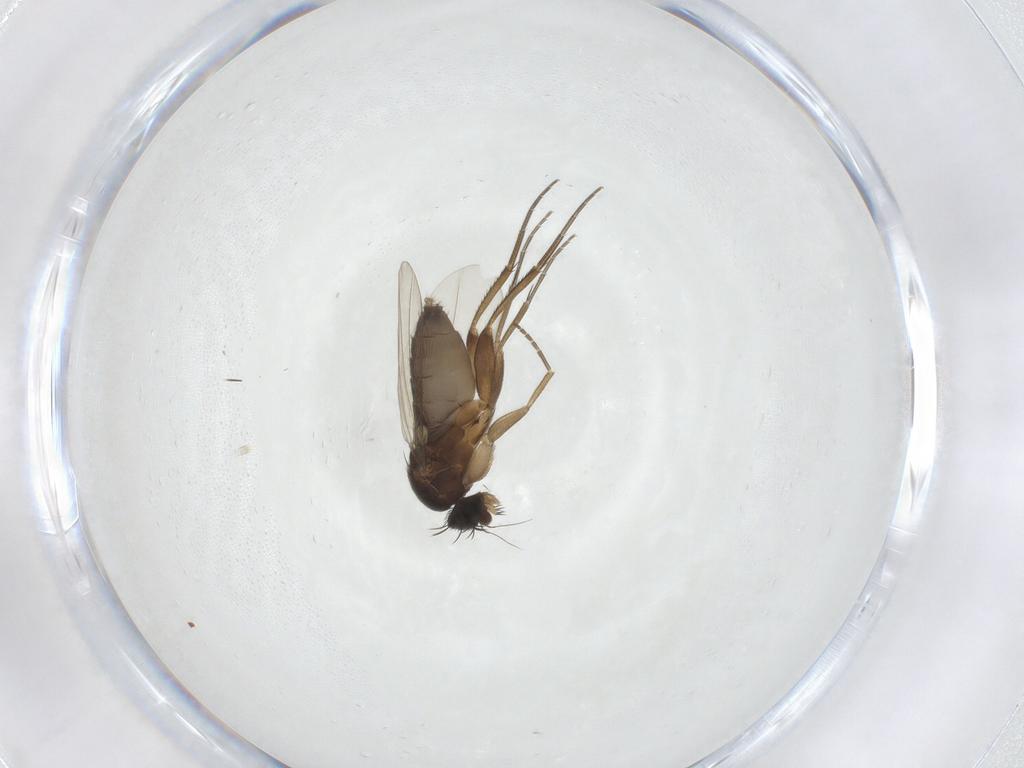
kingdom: Animalia
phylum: Arthropoda
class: Insecta
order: Diptera
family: Phoridae
